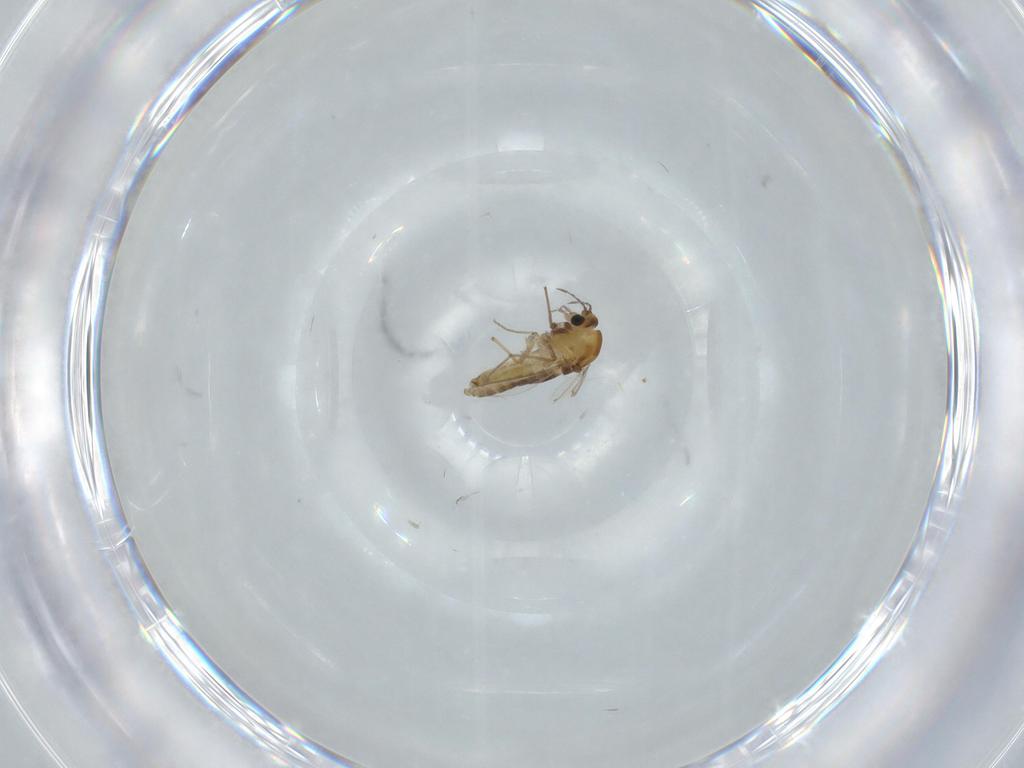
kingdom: Animalia
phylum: Arthropoda
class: Insecta
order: Diptera
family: Chironomidae
